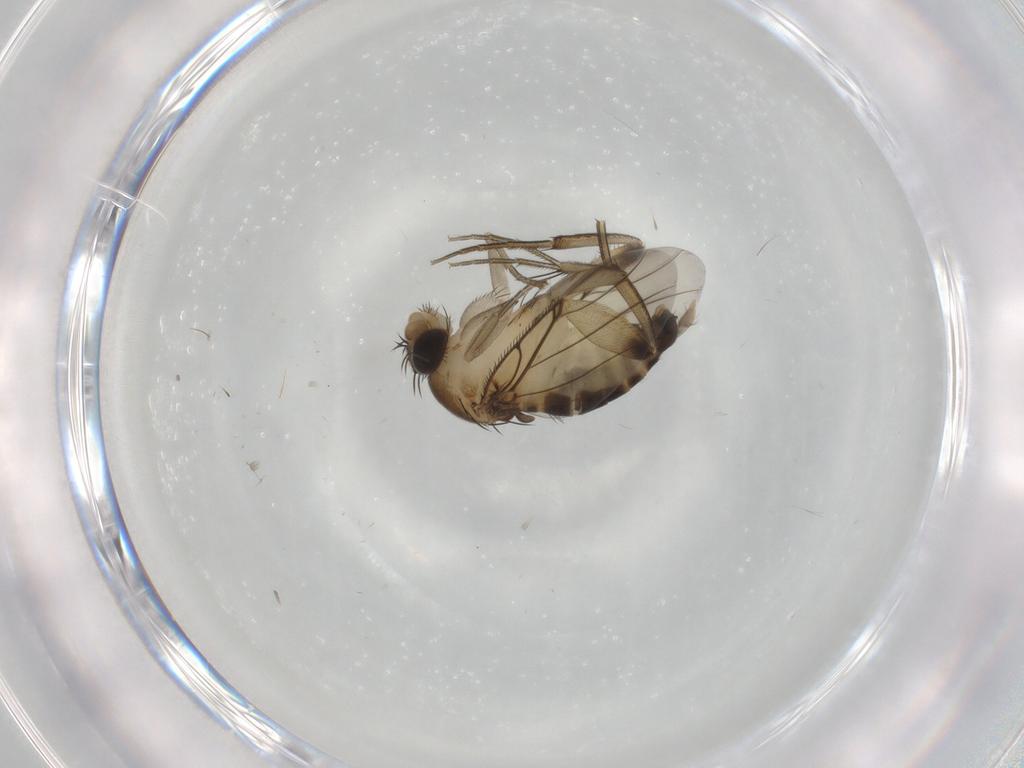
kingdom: Animalia
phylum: Arthropoda
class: Insecta
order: Diptera
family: Phoridae
